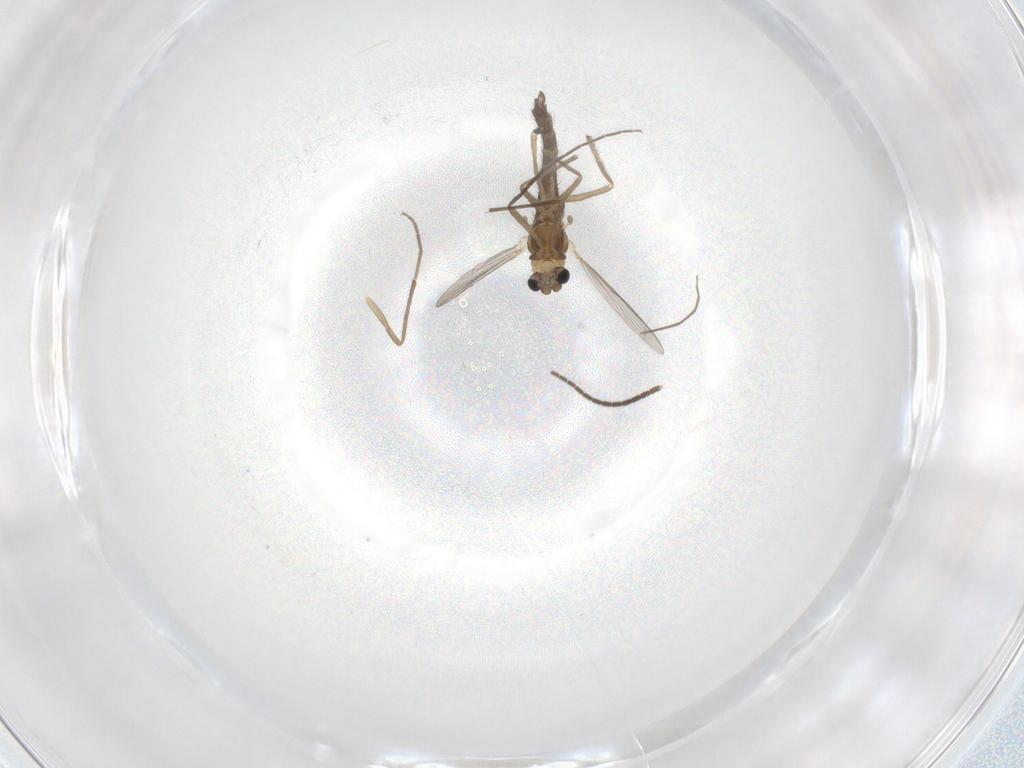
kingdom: Animalia
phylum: Arthropoda
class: Insecta
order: Diptera
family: Chironomidae
